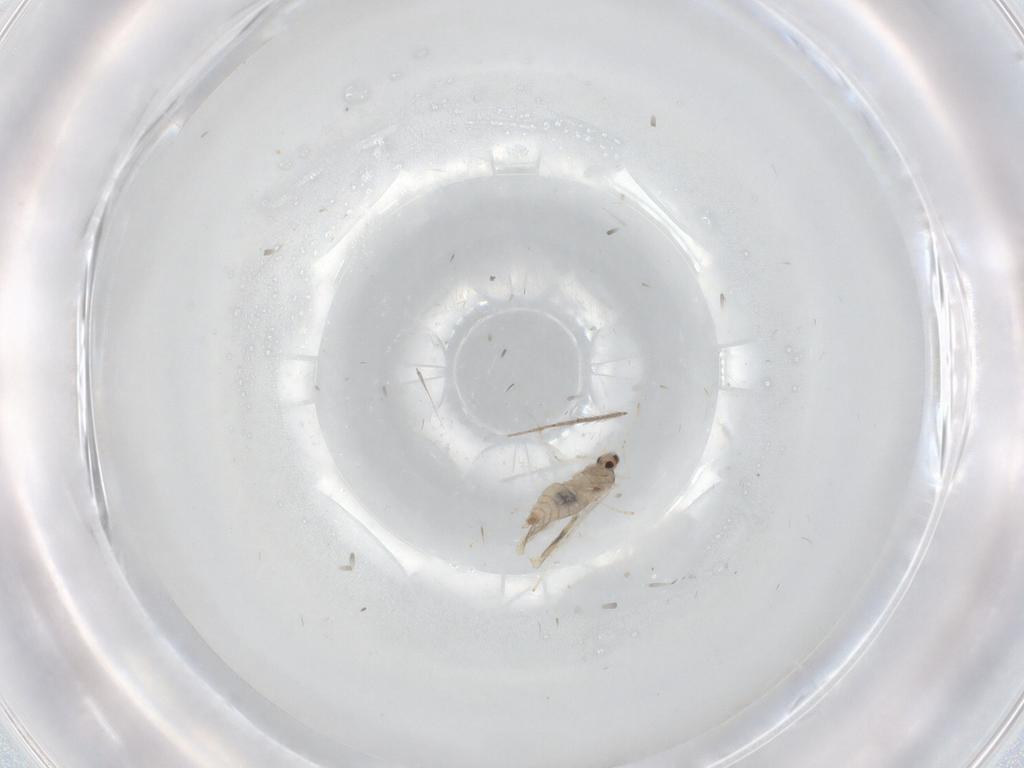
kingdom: Animalia
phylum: Arthropoda
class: Insecta
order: Diptera
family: Cecidomyiidae
